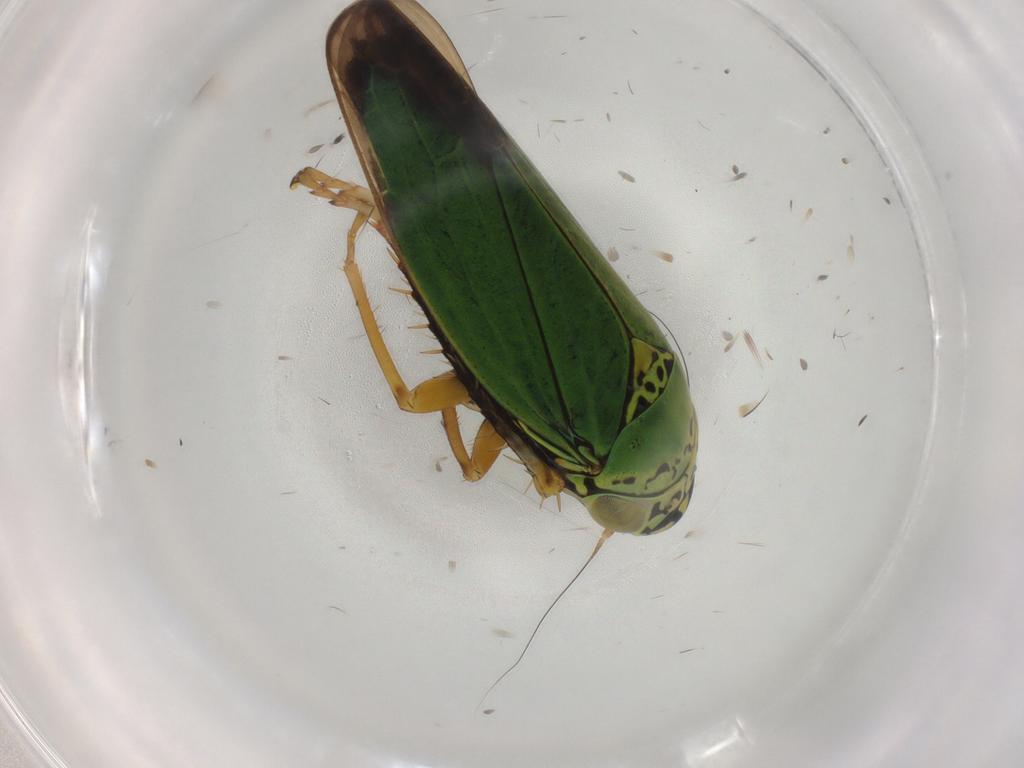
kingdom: Animalia
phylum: Arthropoda
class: Insecta
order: Hemiptera
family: Cicadellidae
